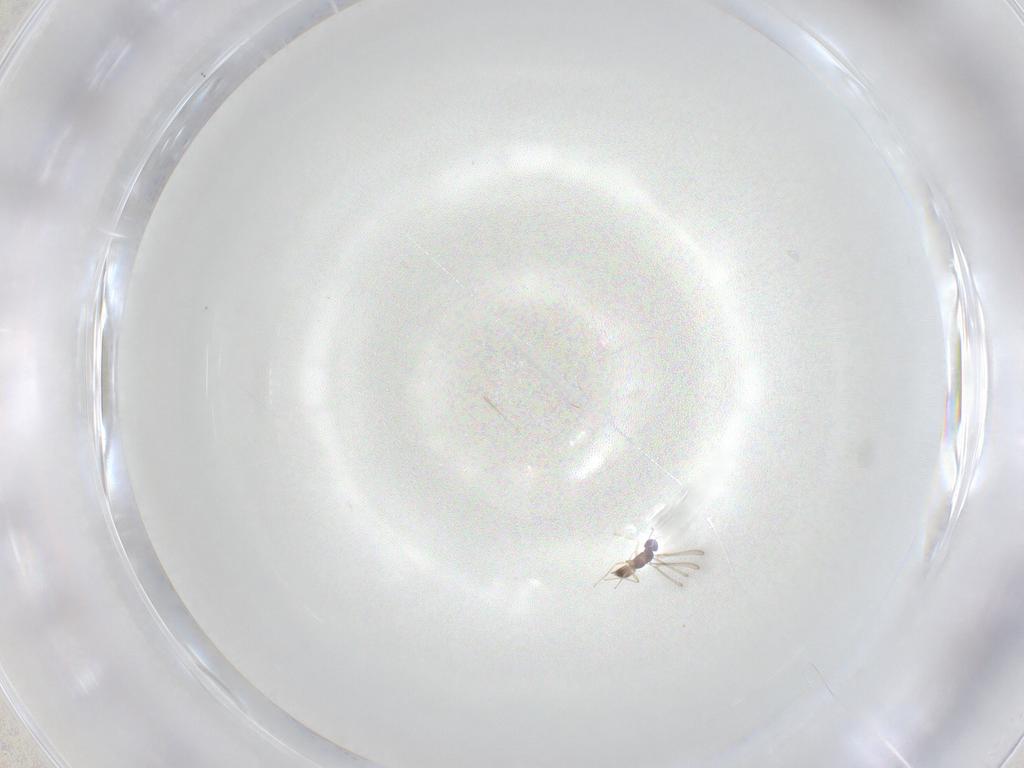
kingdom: Animalia
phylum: Arthropoda
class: Insecta
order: Hymenoptera
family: Mymaridae
